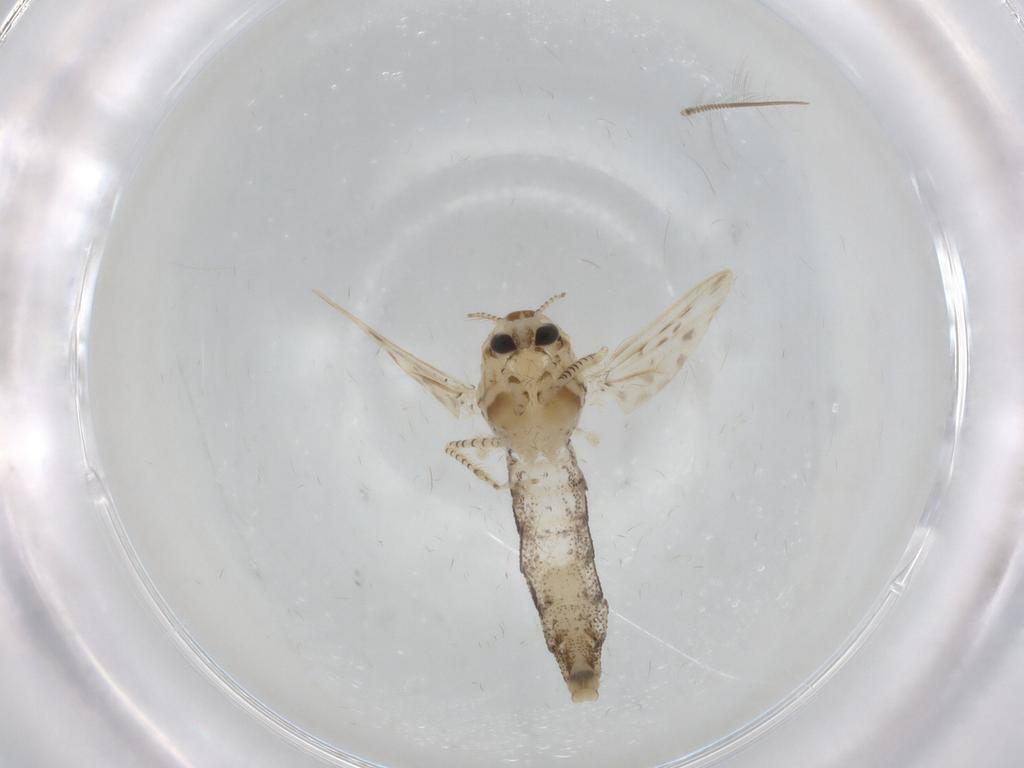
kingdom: Animalia
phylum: Arthropoda
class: Insecta
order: Diptera
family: Chaoboridae
